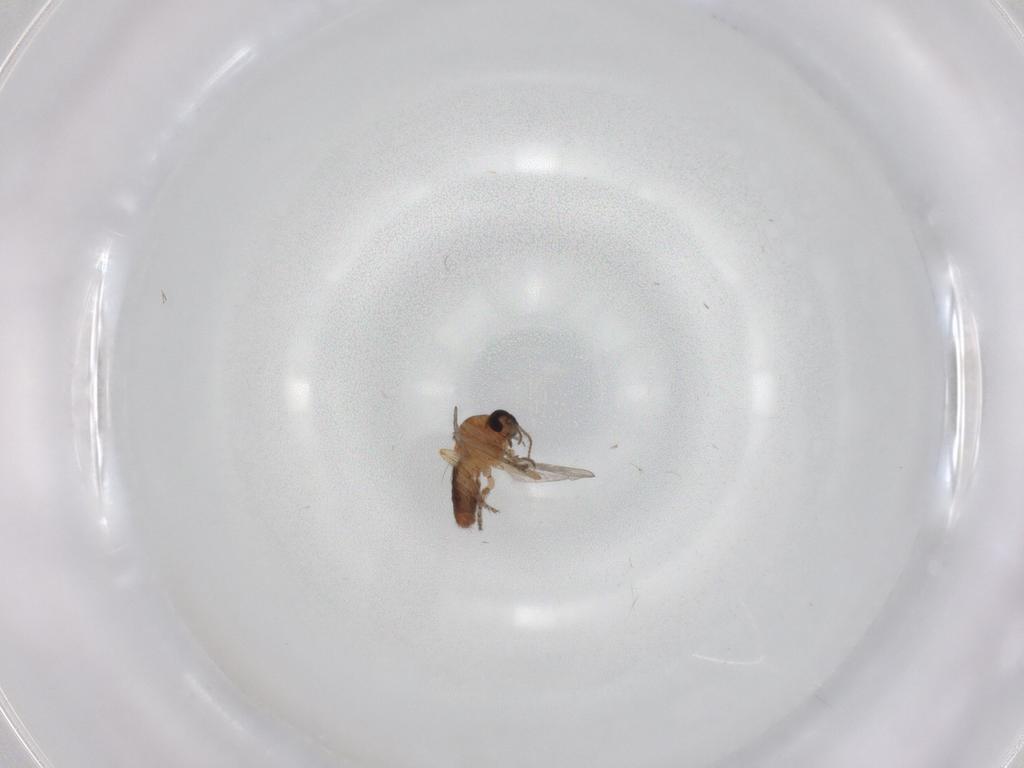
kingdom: Animalia
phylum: Arthropoda
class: Insecta
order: Diptera
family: Ceratopogonidae
